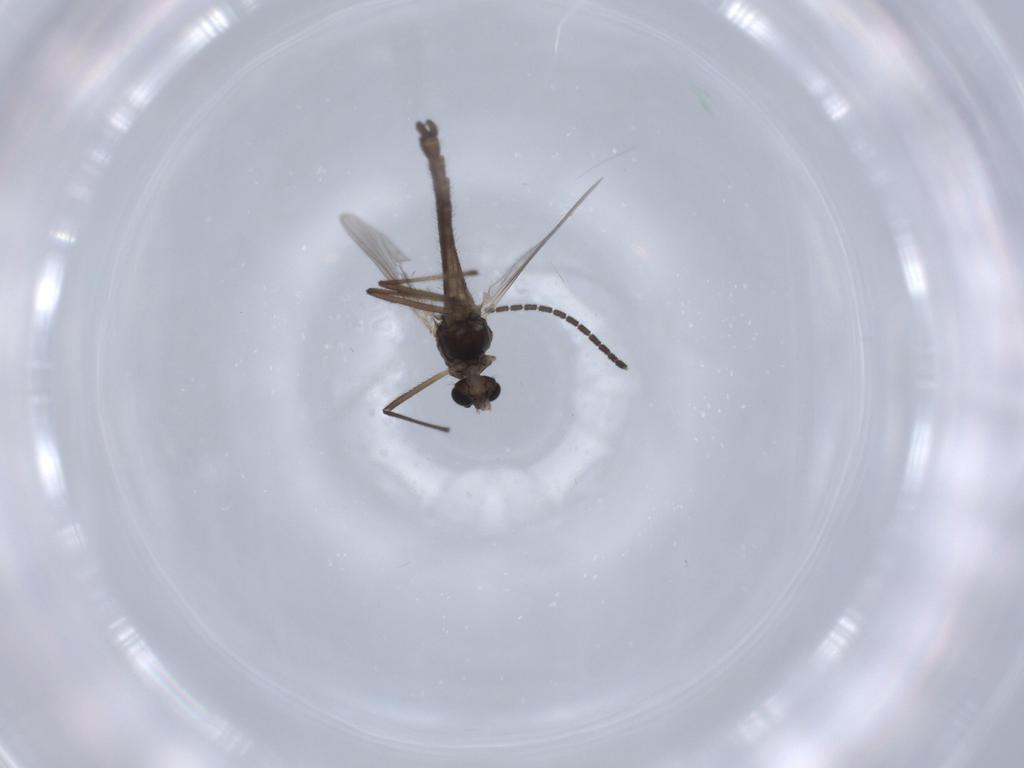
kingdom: Animalia
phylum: Arthropoda
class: Insecta
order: Diptera
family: Chironomidae
